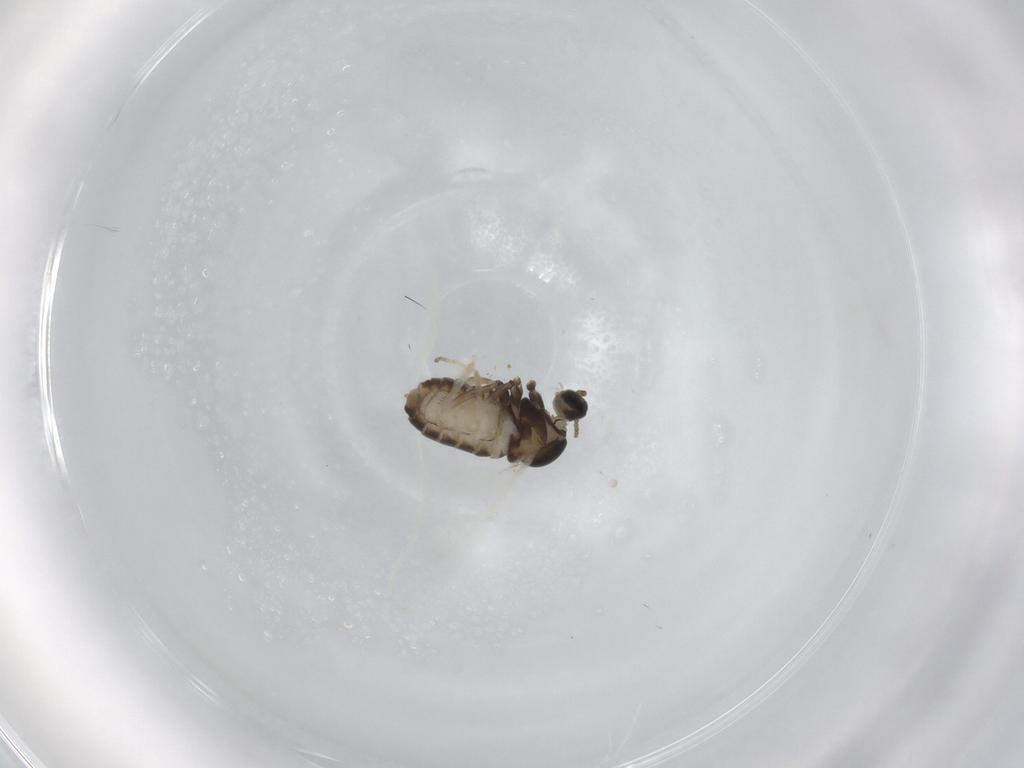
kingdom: Animalia
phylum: Arthropoda
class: Insecta
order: Diptera
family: Cecidomyiidae
